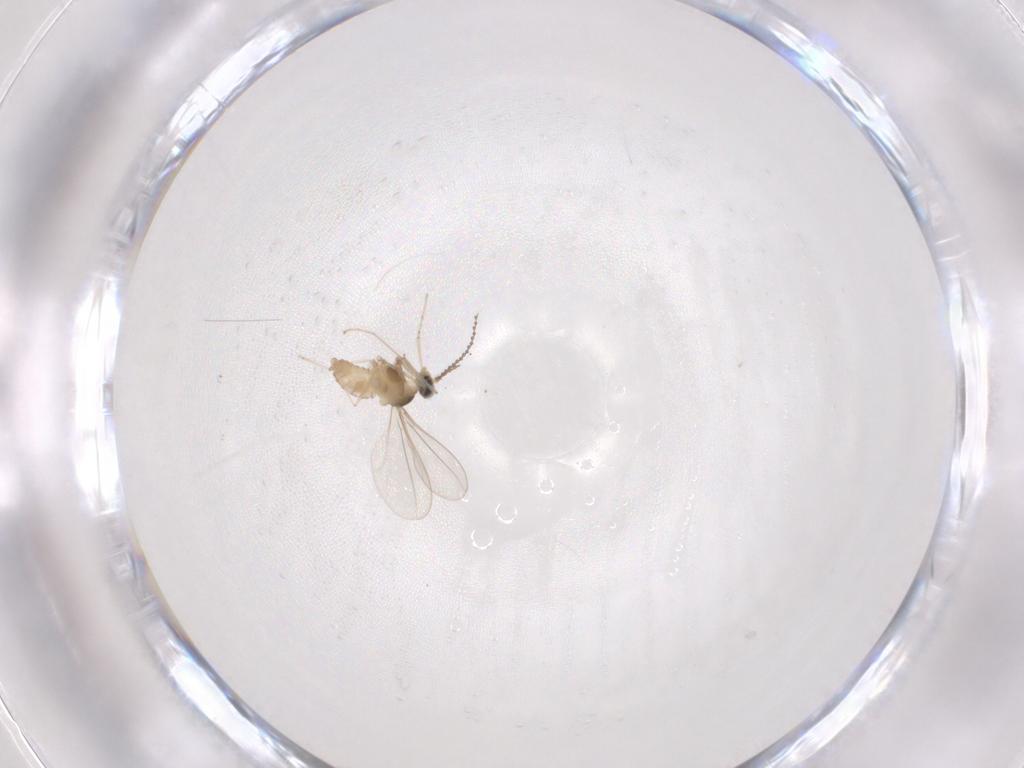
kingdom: Animalia
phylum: Arthropoda
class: Insecta
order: Diptera
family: Cecidomyiidae
